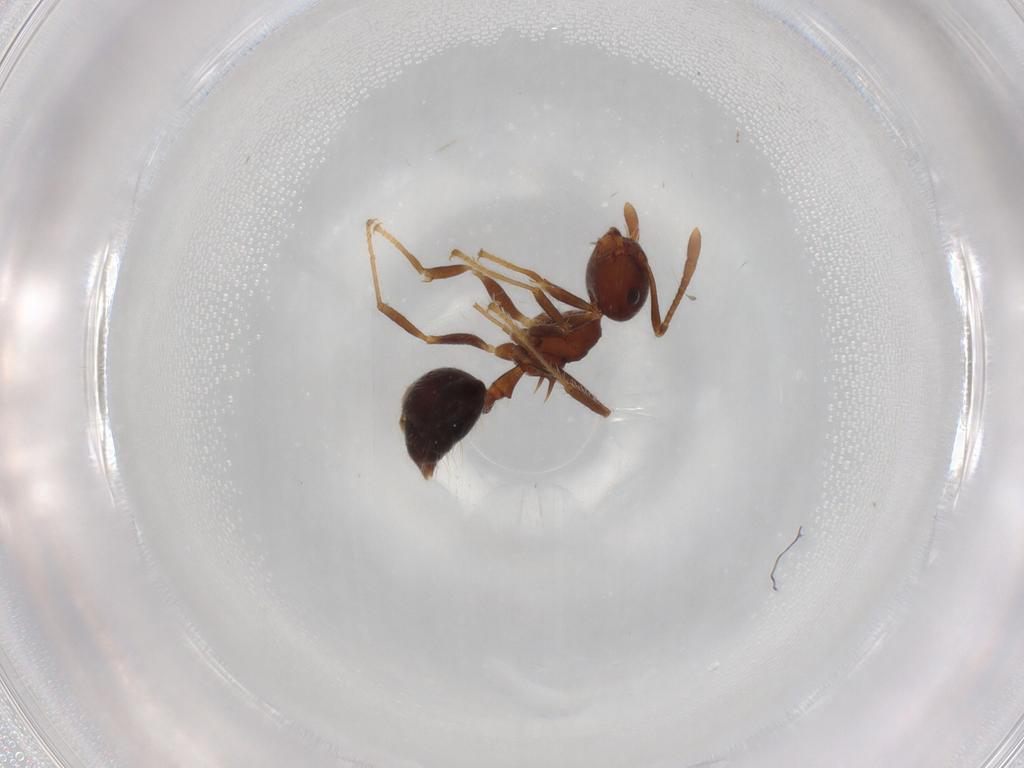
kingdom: Animalia
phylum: Arthropoda
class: Insecta
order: Hymenoptera
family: Formicidae
